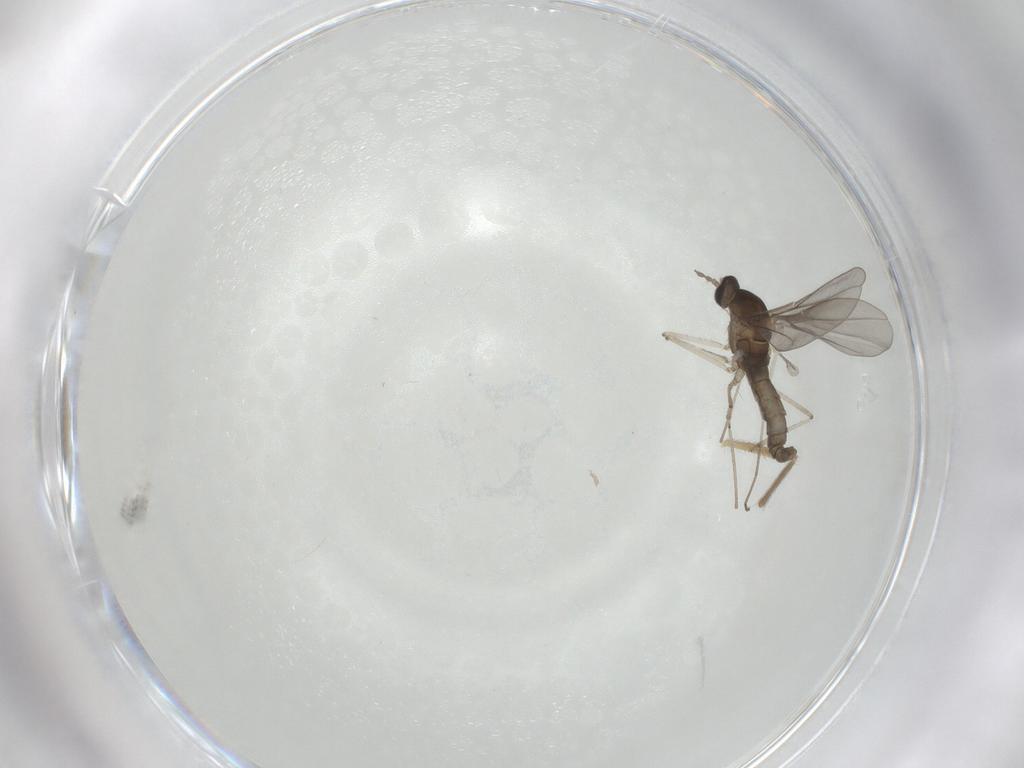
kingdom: Animalia
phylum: Arthropoda
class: Insecta
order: Diptera
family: Cecidomyiidae
